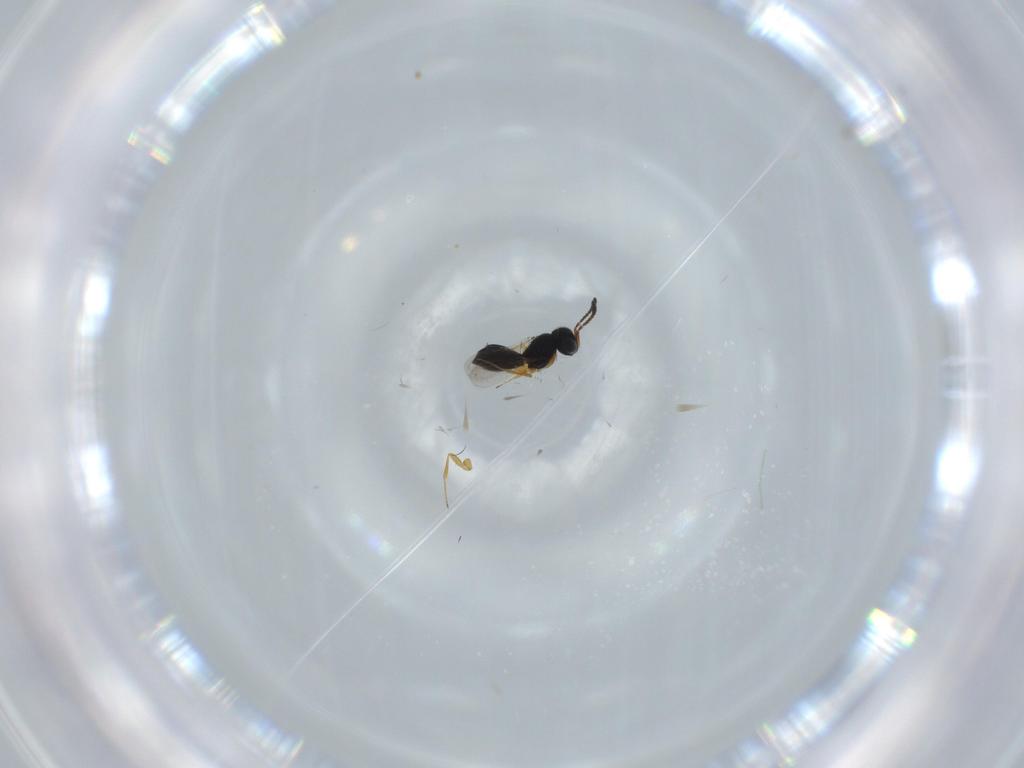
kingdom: Animalia
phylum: Arthropoda
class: Insecta
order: Hymenoptera
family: Scelionidae
